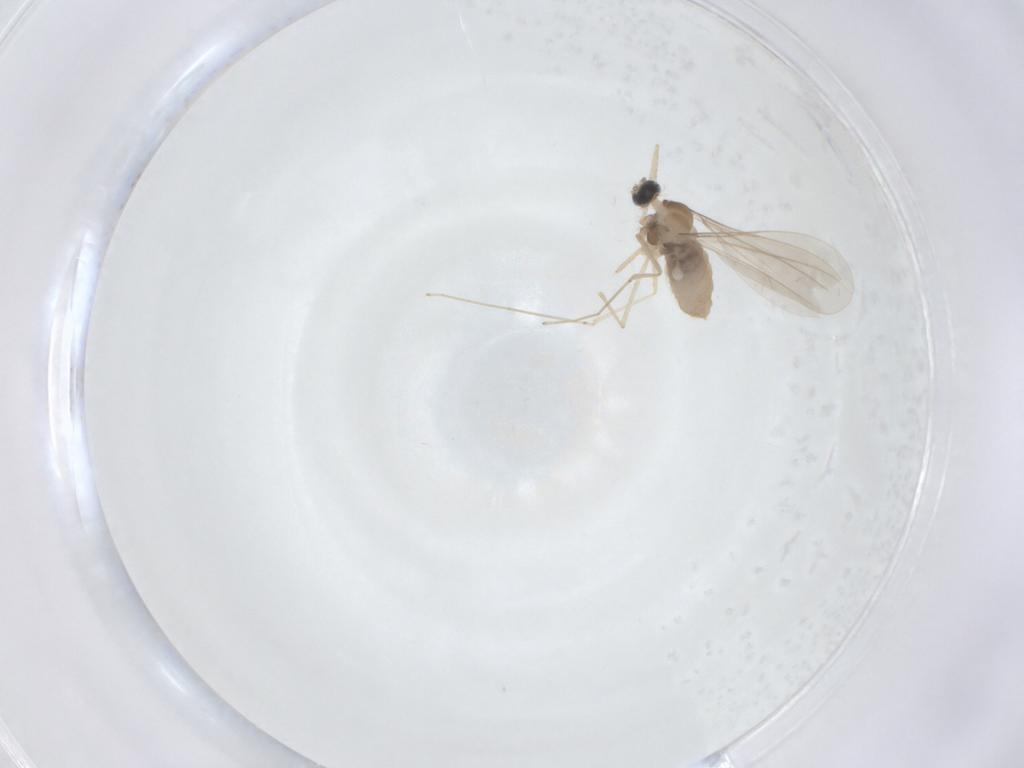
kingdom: Animalia
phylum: Arthropoda
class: Insecta
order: Diptera
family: Cecidomyiidae
